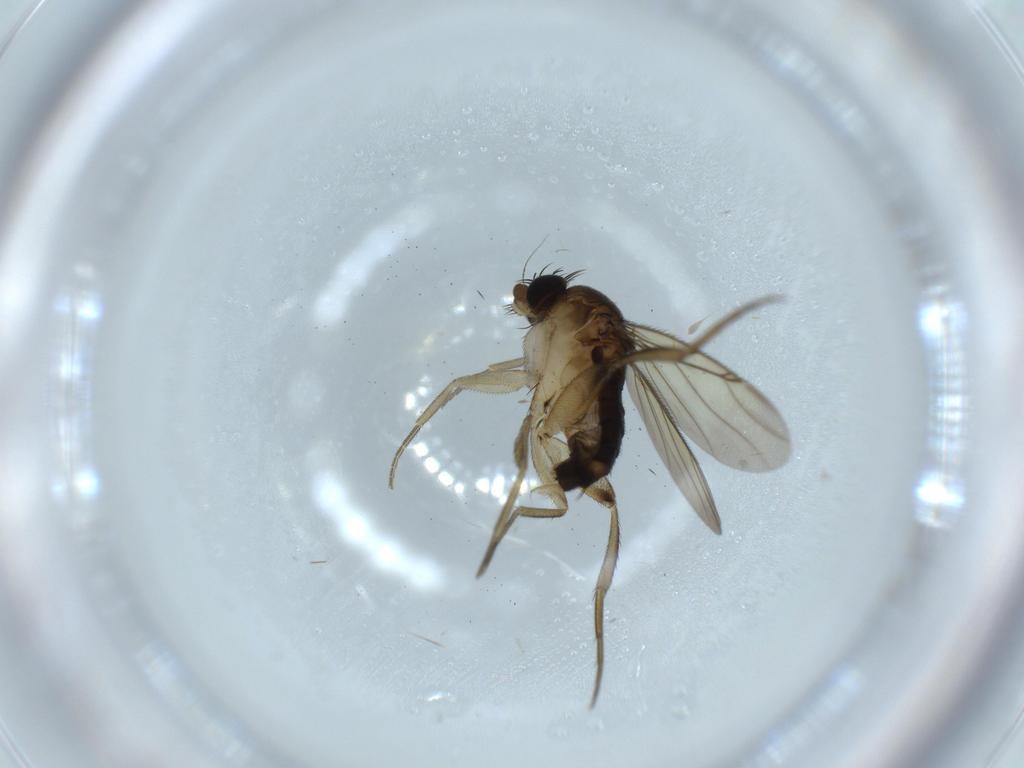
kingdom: Animalia
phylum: Arthropoda
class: Insecta
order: Diptera
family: Phoridae
